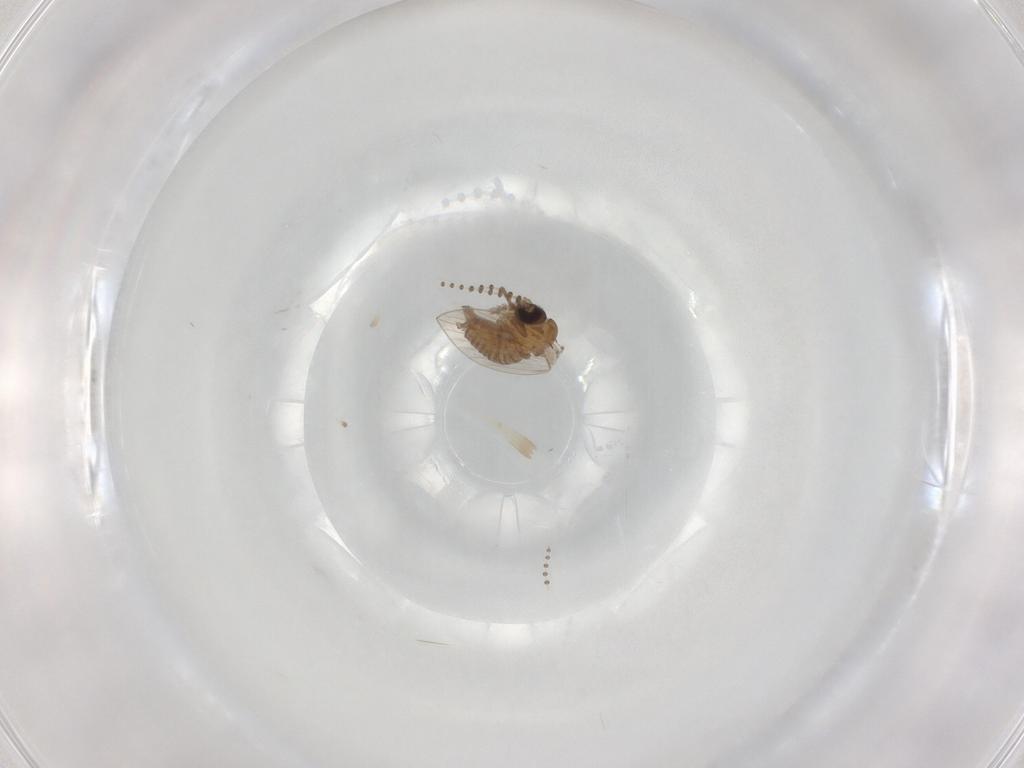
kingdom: Animalia
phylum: Arthropoda
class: Insecta
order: Diptera
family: Psychodidae
